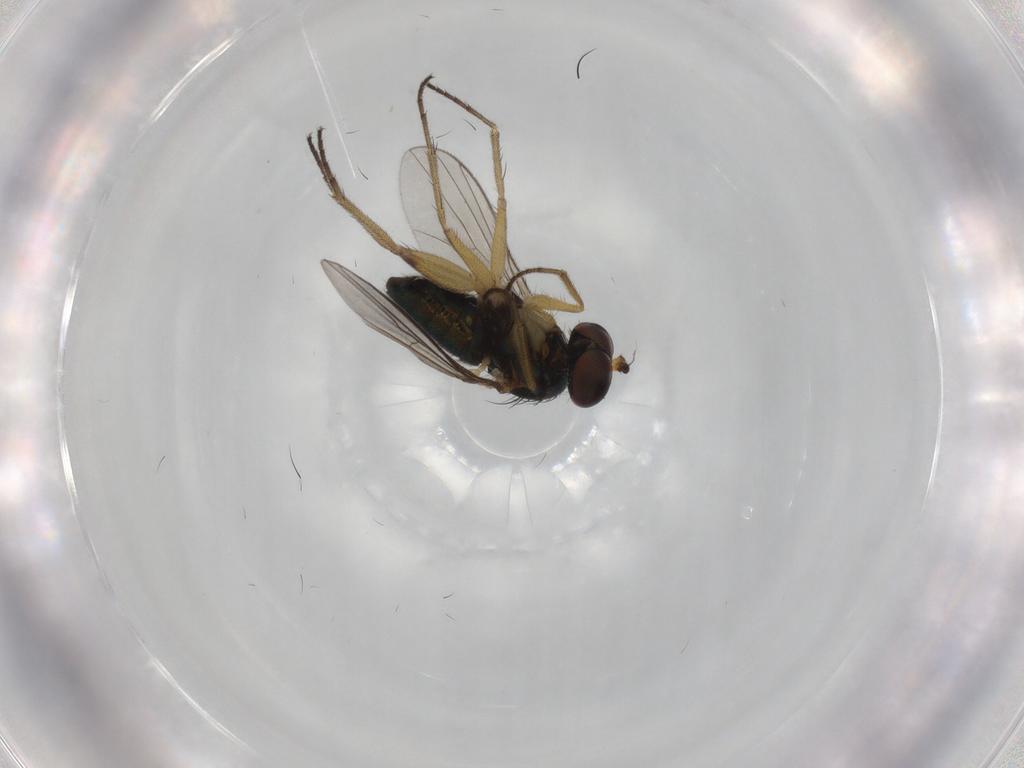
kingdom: Animalia
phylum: Arthropoda
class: Insecta
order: Diptera
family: Dolichopodidae
